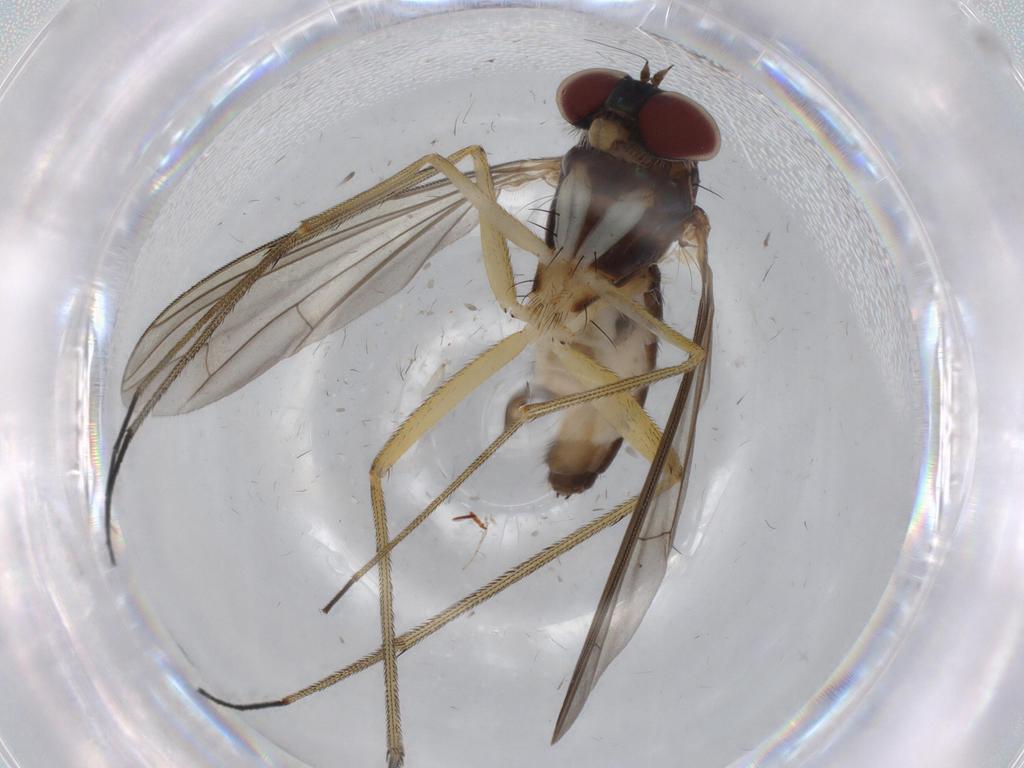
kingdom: Animalia
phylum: Arthropoda
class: Insecta
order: Diptera
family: Dolichopodidae
